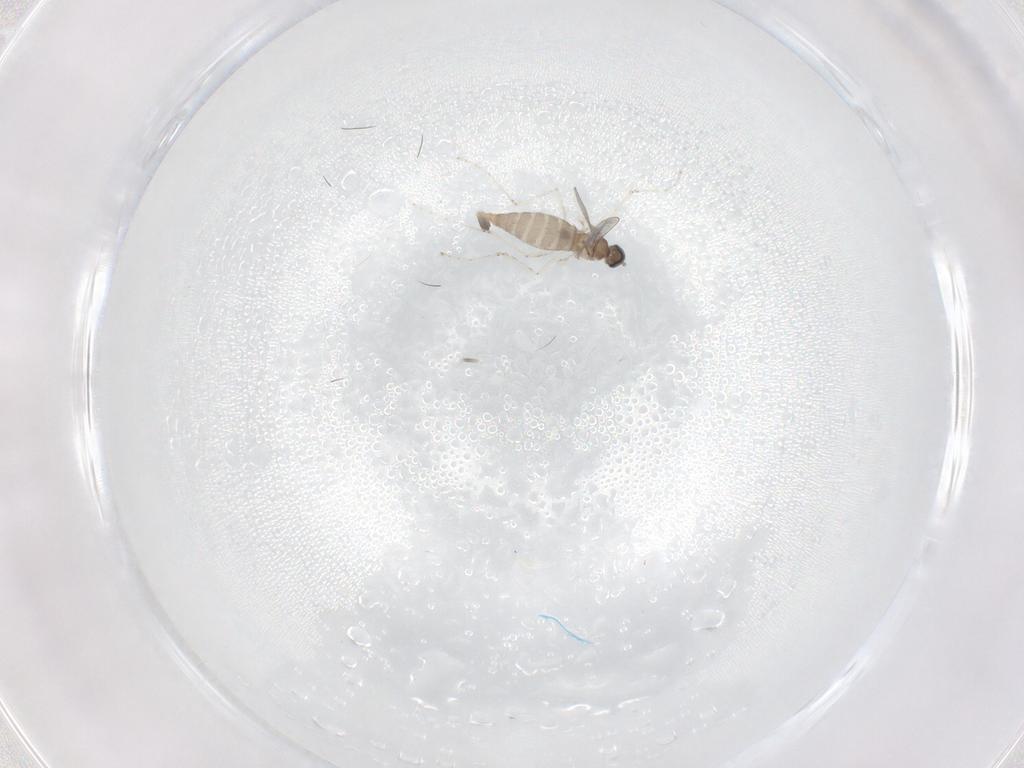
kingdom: Animalia
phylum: Arthropoda
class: Insecta
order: Diptera
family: Cecidomyiidae
